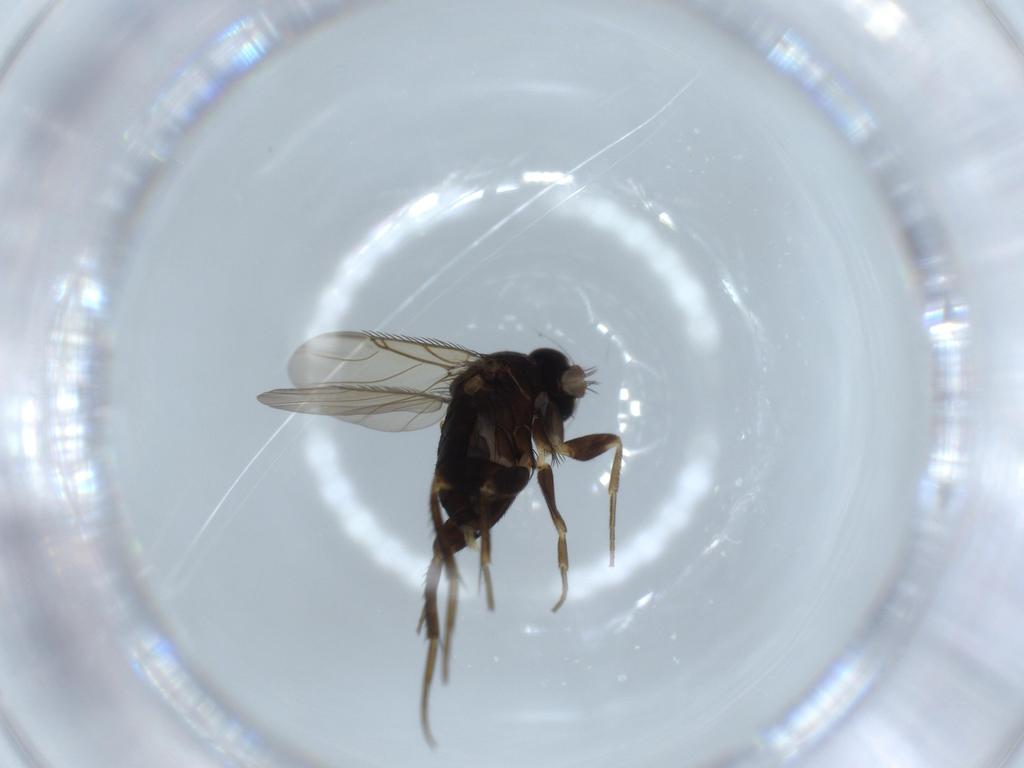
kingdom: Animalia
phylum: Arthropoda
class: Insecta
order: Diptera
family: Phoridae
